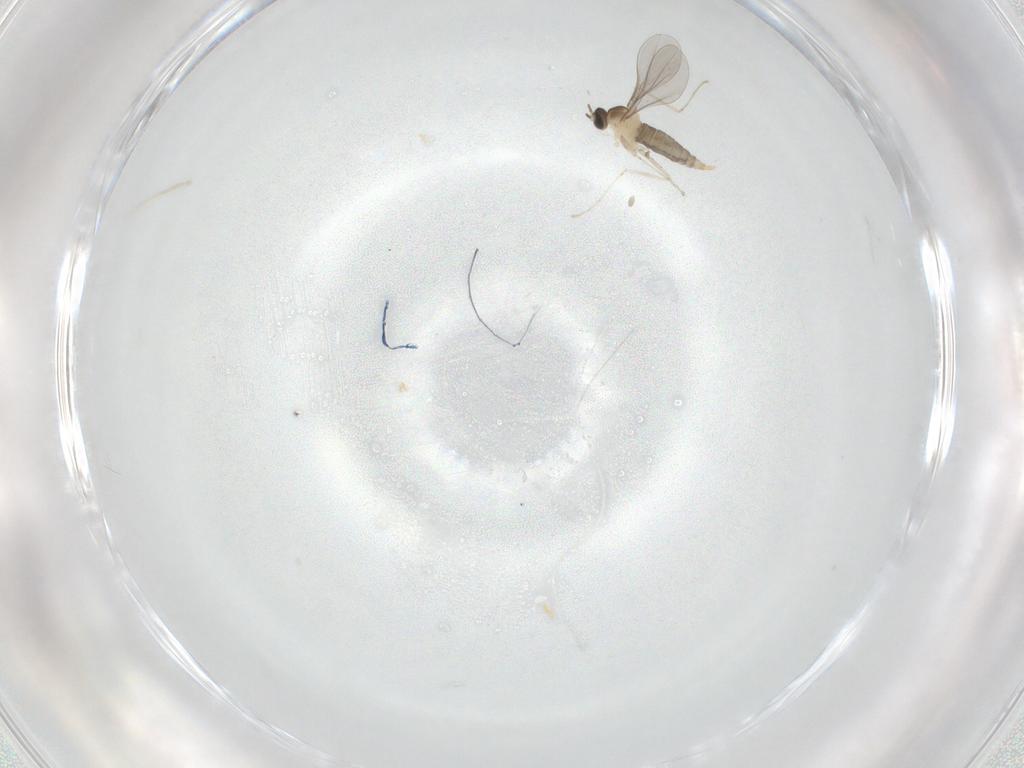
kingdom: Animalia
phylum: Arthropoda
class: Insecta
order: Diptera
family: Cecidomyiidae
